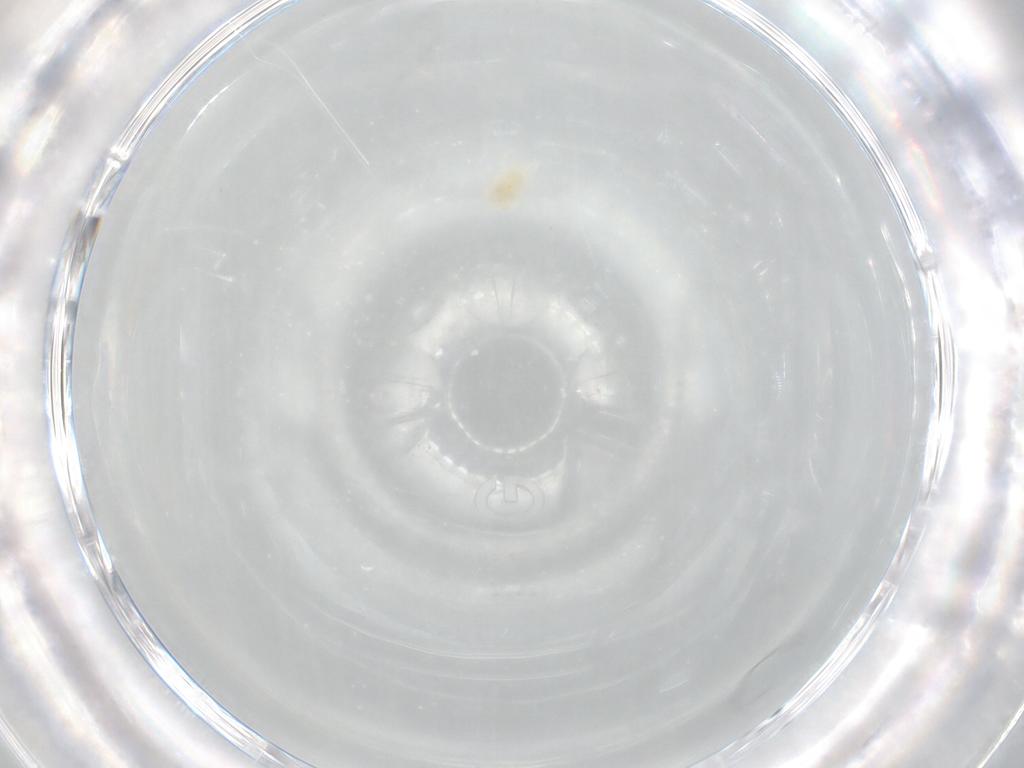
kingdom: Animalia
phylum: Arthropoda
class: Arachnida
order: Trombidiformes
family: Eupodidae
